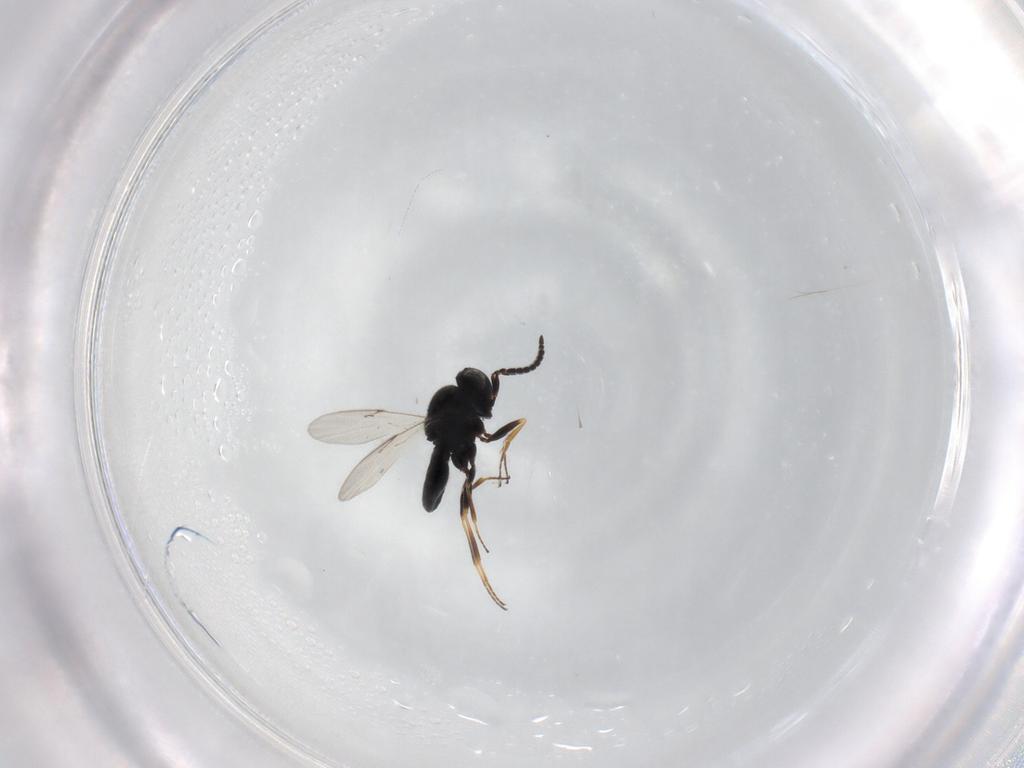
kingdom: Animalia
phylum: Arthropoda
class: Insecta
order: Hymenoptera
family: Scelionidae
